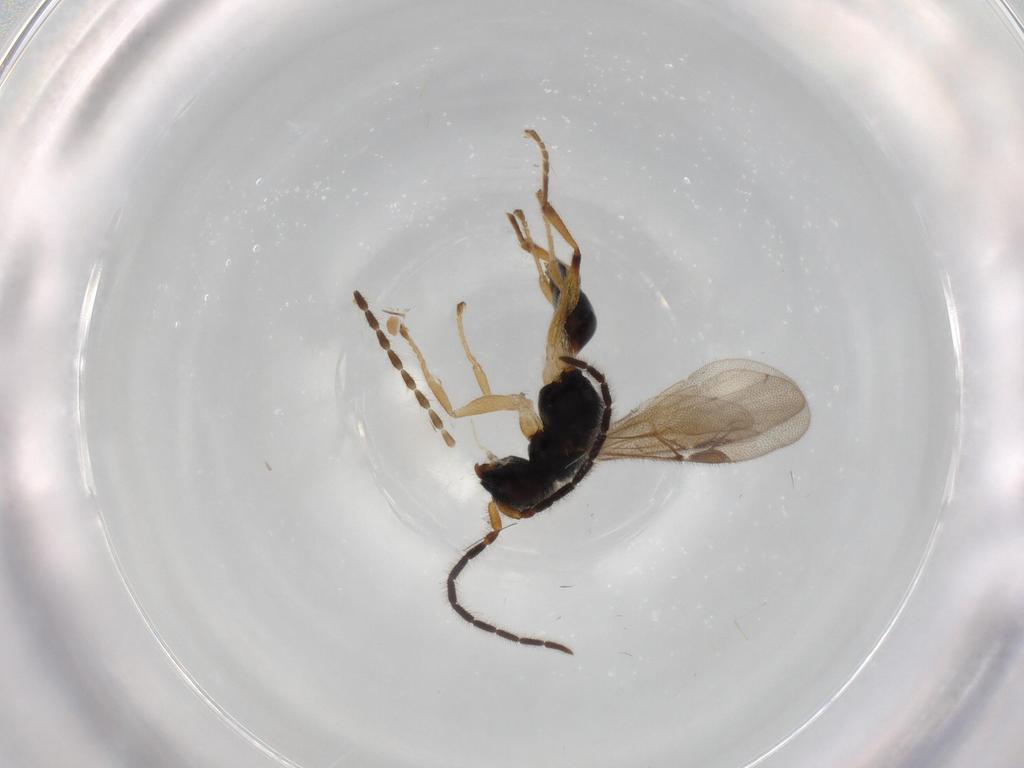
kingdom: Animalia
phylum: Arthropoda
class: Insecta
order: Hymenoptera
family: Dryinidae
